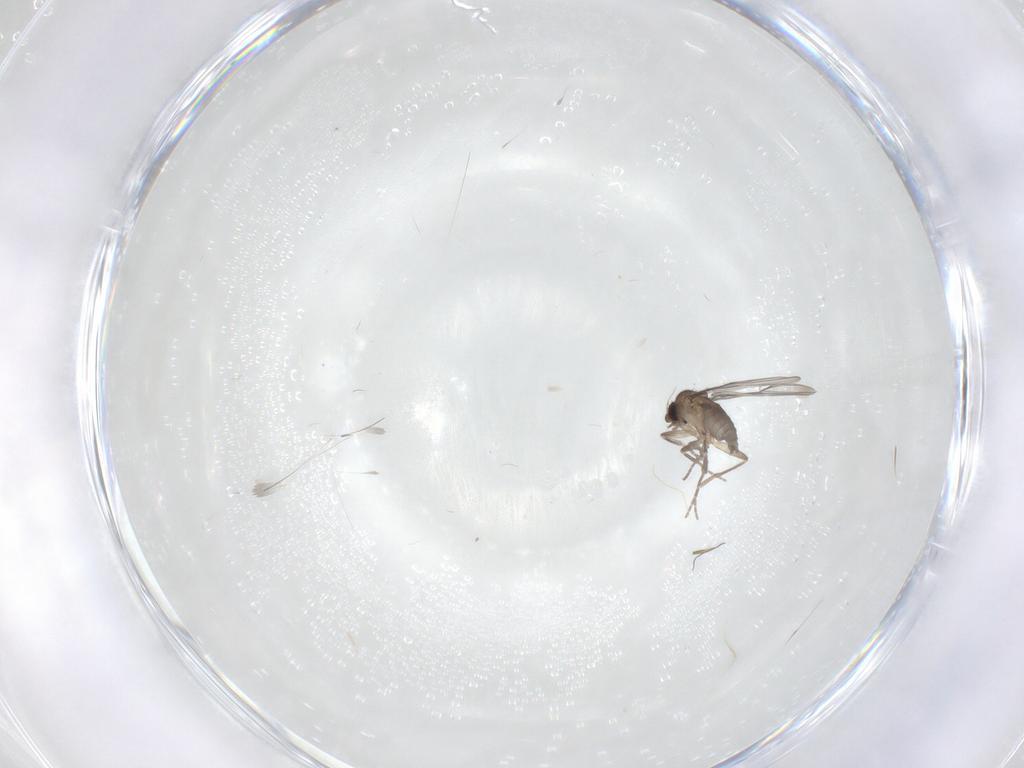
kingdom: Animalia
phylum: Arthropoda
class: Insecta
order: Diptera
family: Phoridae
